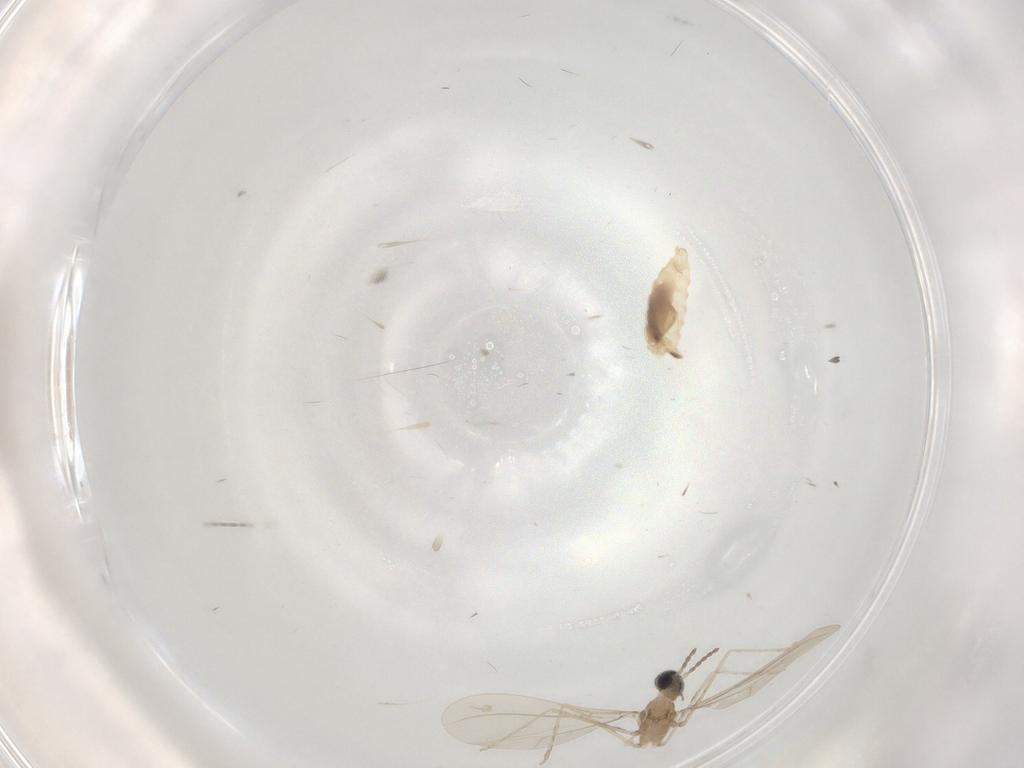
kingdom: Animalia
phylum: Arthropoda
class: Insecta
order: Diptera
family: Cecidomyiidae
